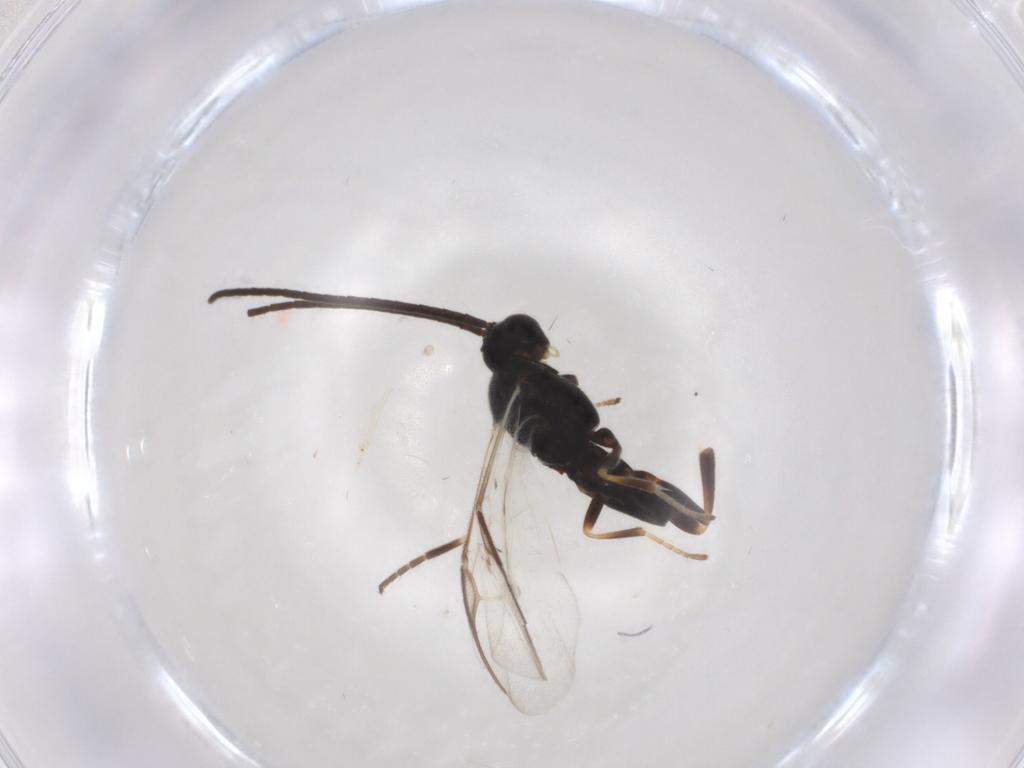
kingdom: Animalia
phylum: Arthropoda
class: Insecta
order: Hymenoptera
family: Braconidae
